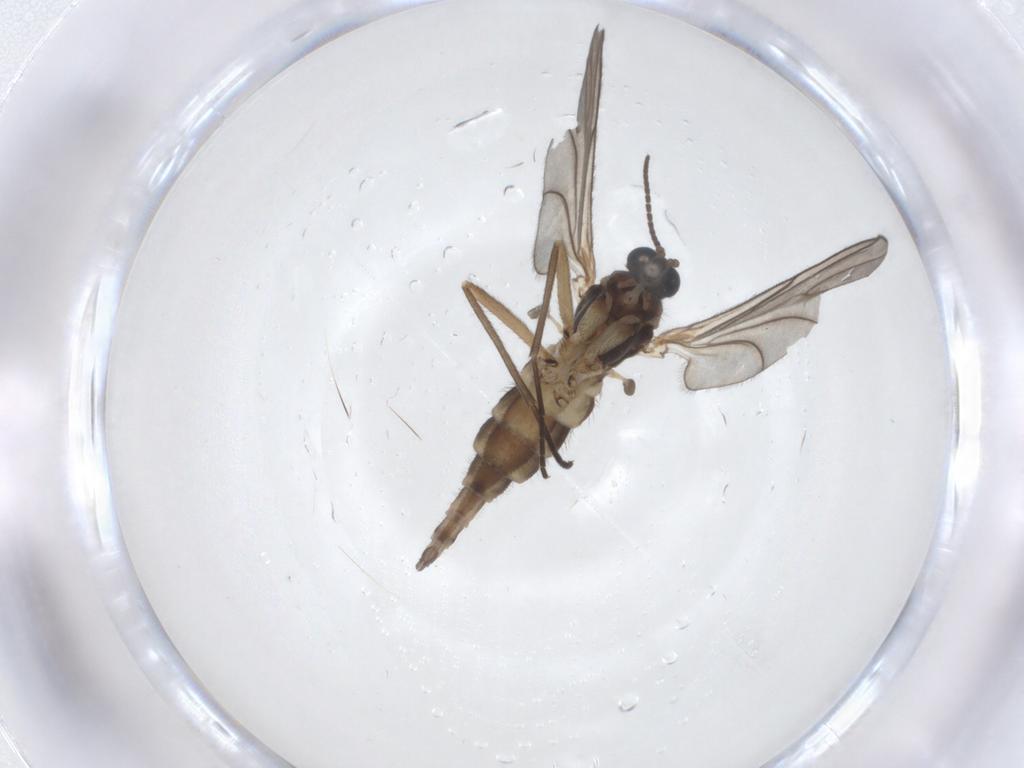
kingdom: Animalia
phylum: Arthropoda
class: Insecta
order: Diptera
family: Sciaridae
